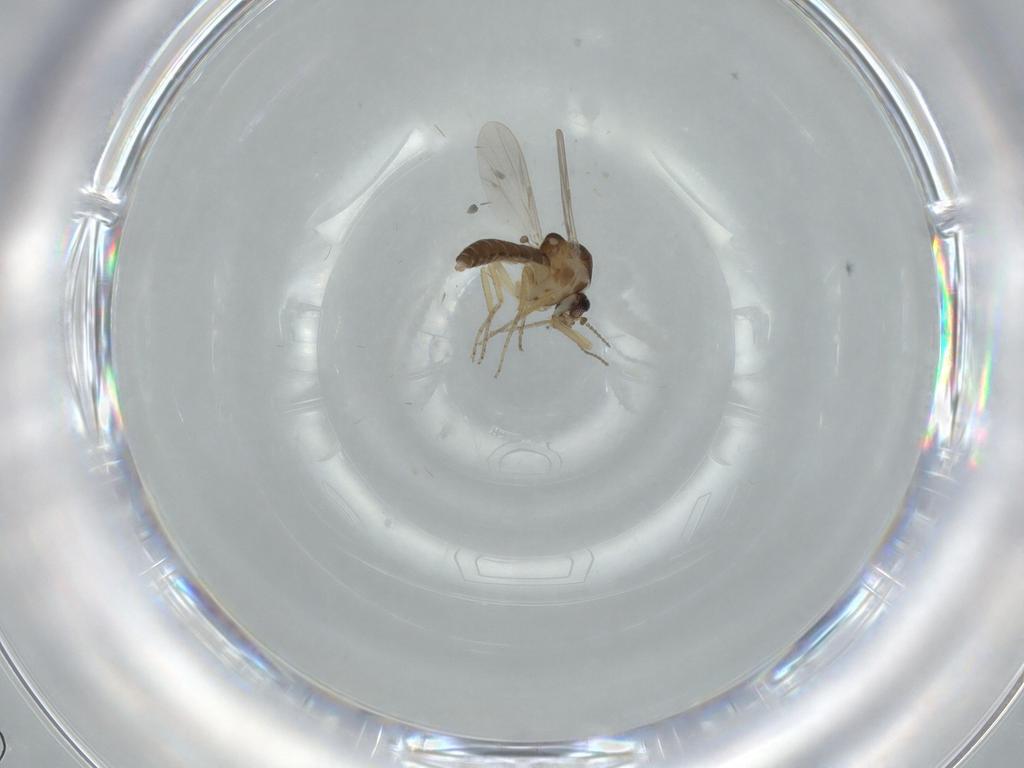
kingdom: Animalia
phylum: Arthropoda
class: Insecta
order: Diptera
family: Ceratopogonidae
